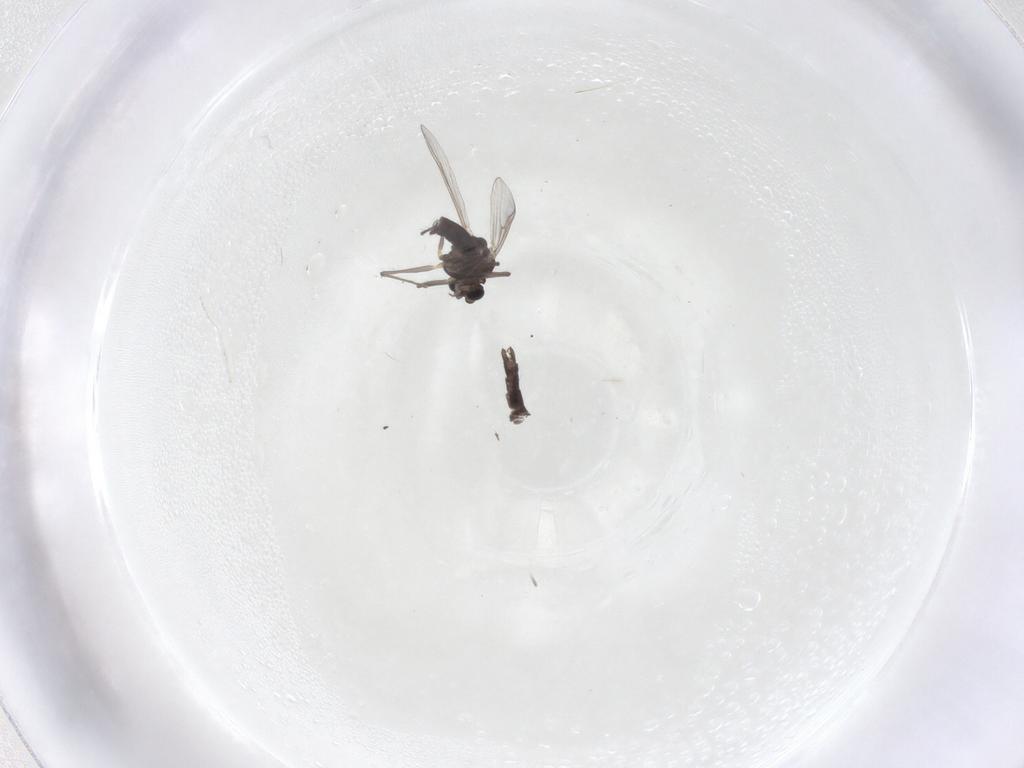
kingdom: Animalia
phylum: Arthropoda
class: Insecta
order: Diptera
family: Chironomidae
